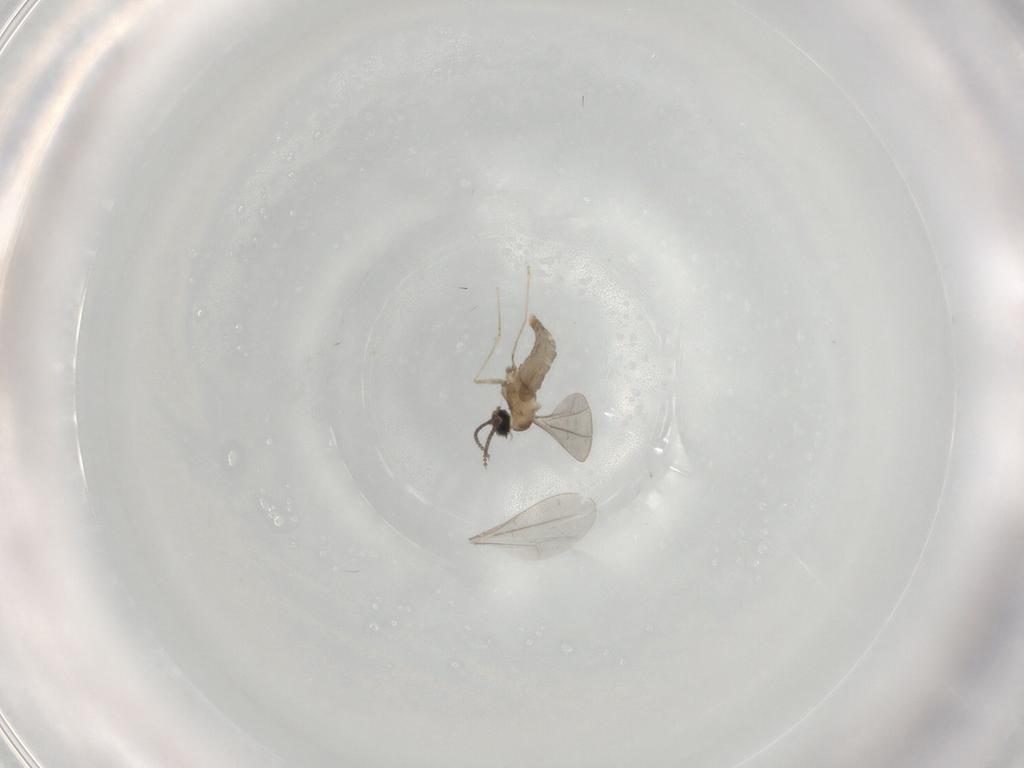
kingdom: Animalia
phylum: Arthropoda
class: Insecta
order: Diptera
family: Cecidomyiidae
